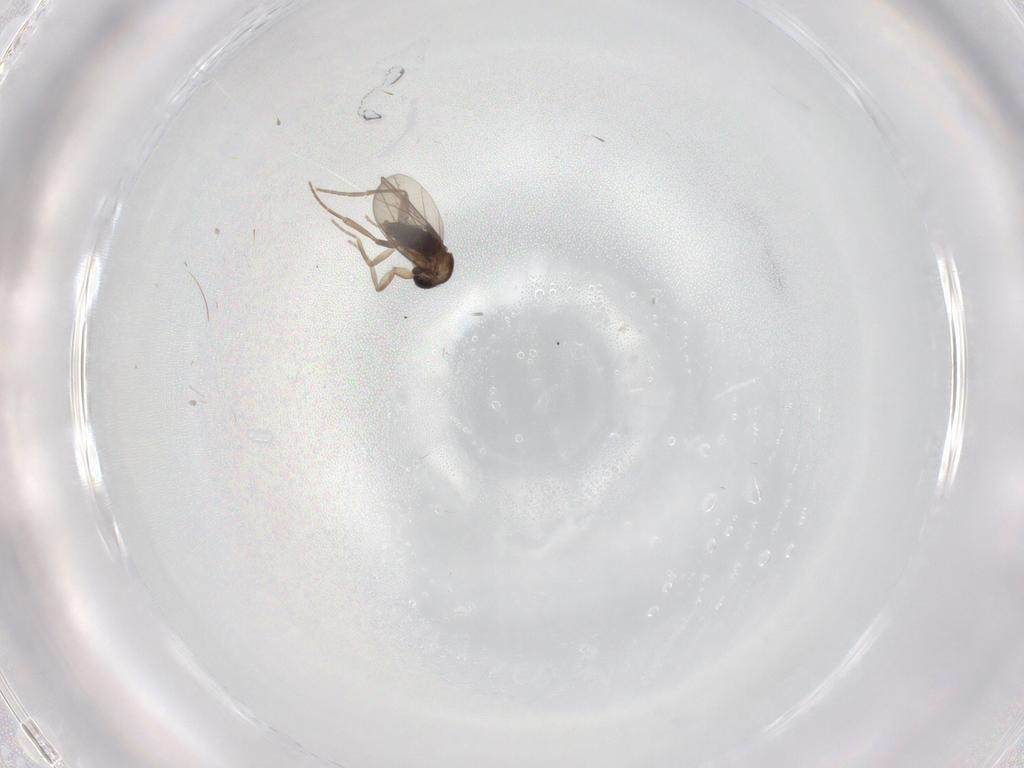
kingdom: Animalia
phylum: Arthropoda
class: Insecta
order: Diptera
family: Phoridae
